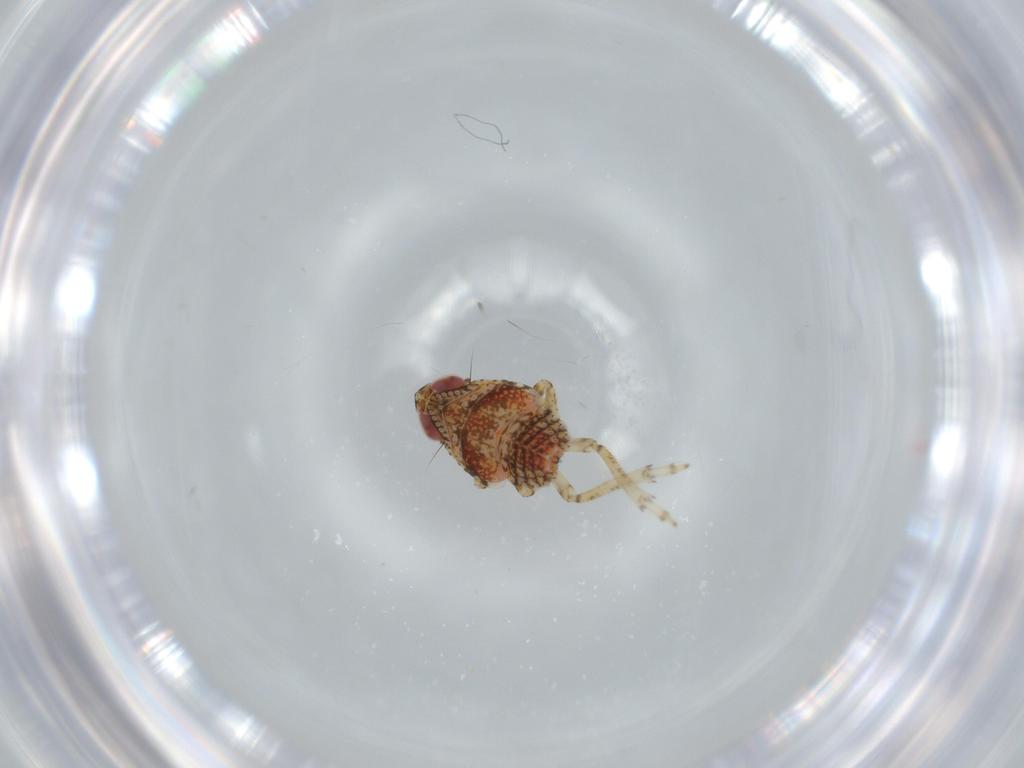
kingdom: Animalia
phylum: Arthropoda
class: Insecta
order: Hemiptera
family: Issidae
